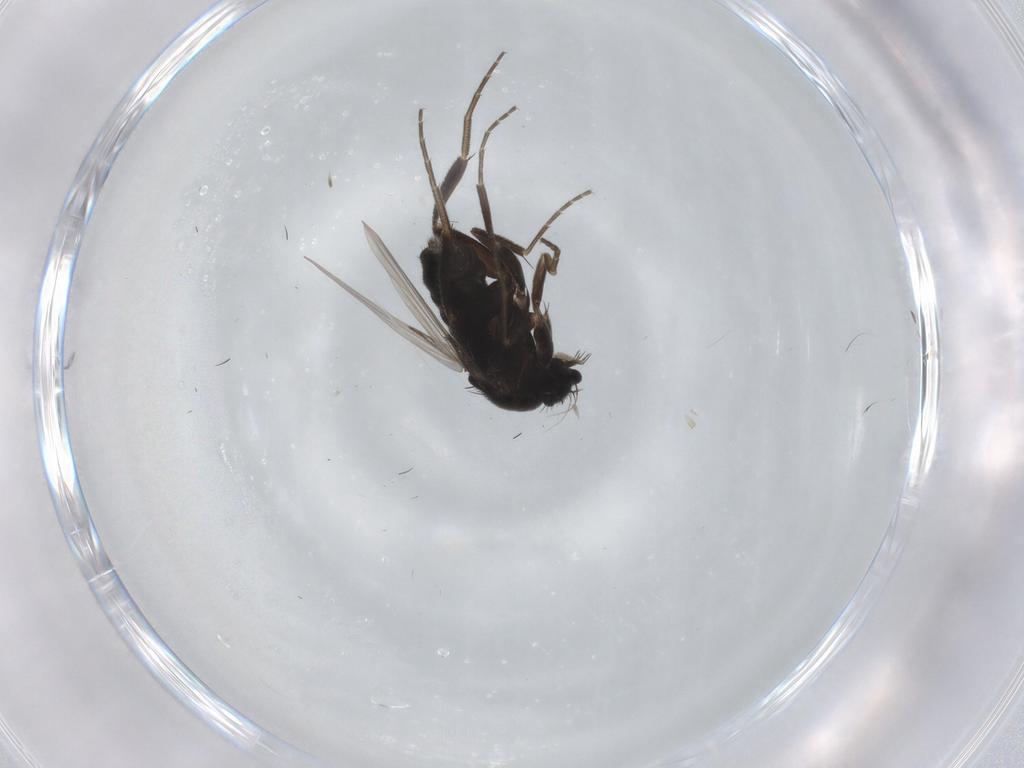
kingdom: Animalia
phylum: Arthropoda
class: Insecta
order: Diptera
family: Phoridae
